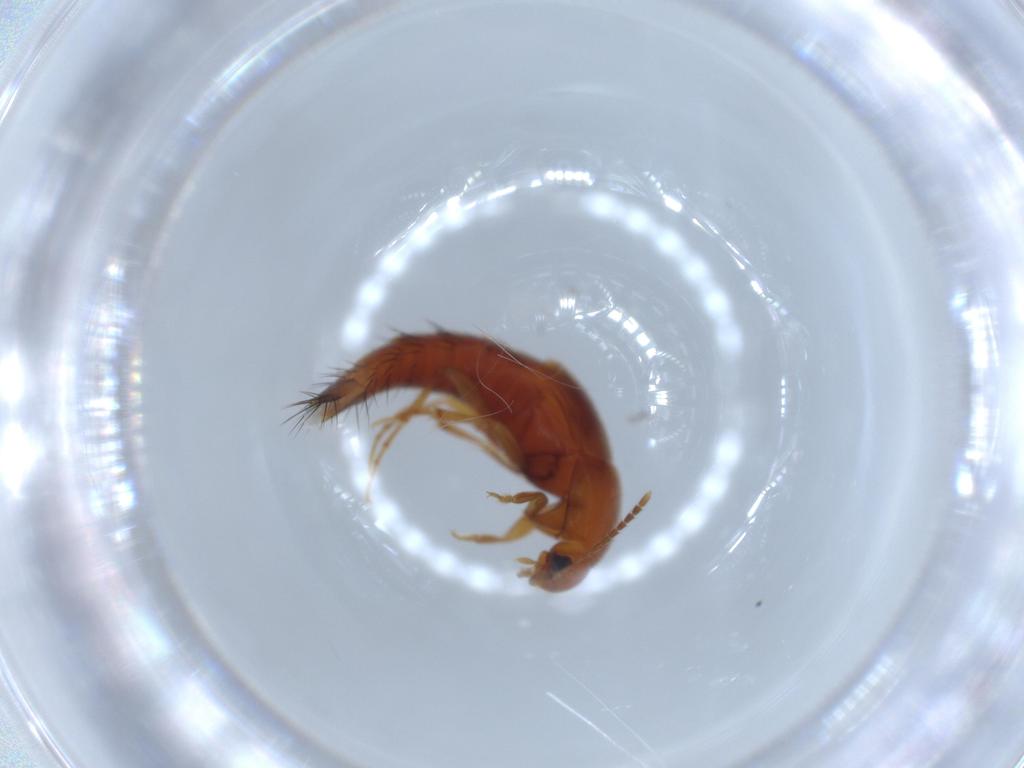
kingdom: Animalia
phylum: Arthropoda
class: Insecta
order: Coleoptera
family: Staphylinidae
